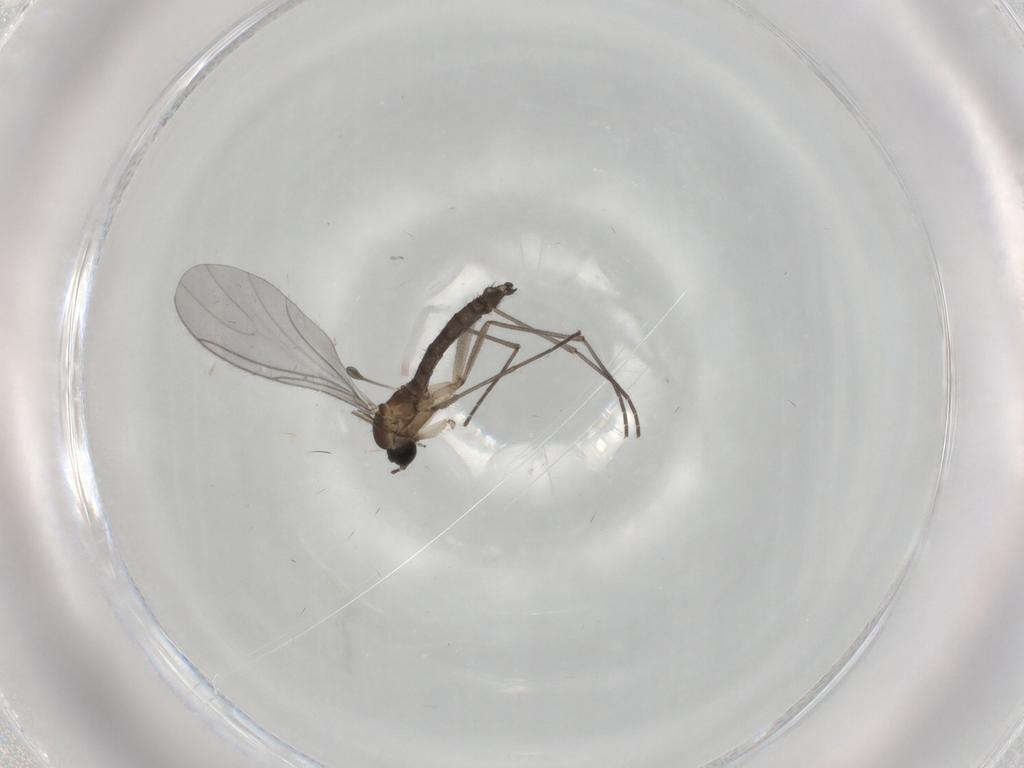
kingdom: Animalia
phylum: Arthropoda
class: Insecta
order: Diptera
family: Sciaridae
